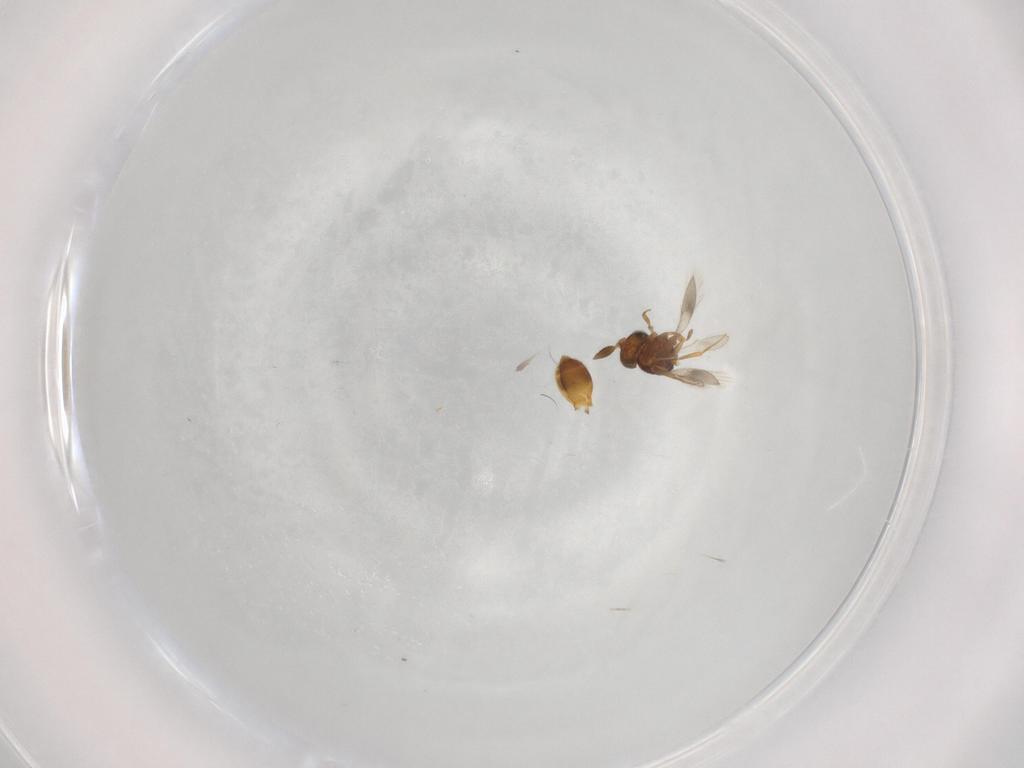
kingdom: Animalia
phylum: Arthropoda
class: Insecta
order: Hymenoptera
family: Scelionidae
